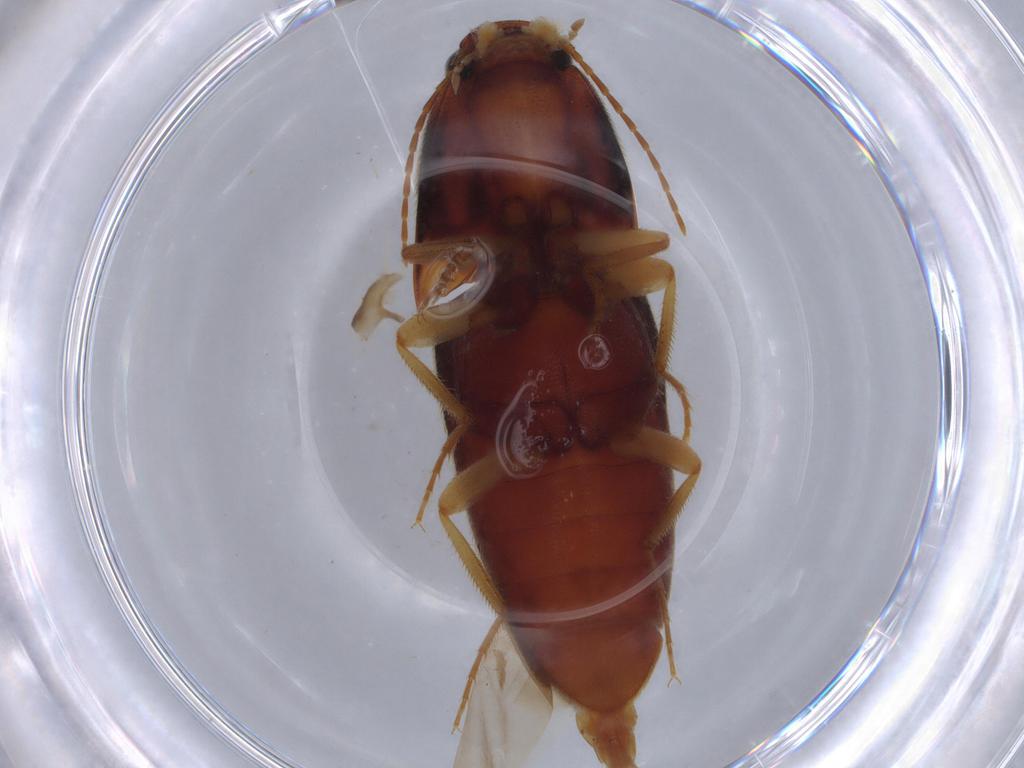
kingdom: Animalia
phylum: Arthropoda
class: Insecta
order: Coleoptera
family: Elateridae
